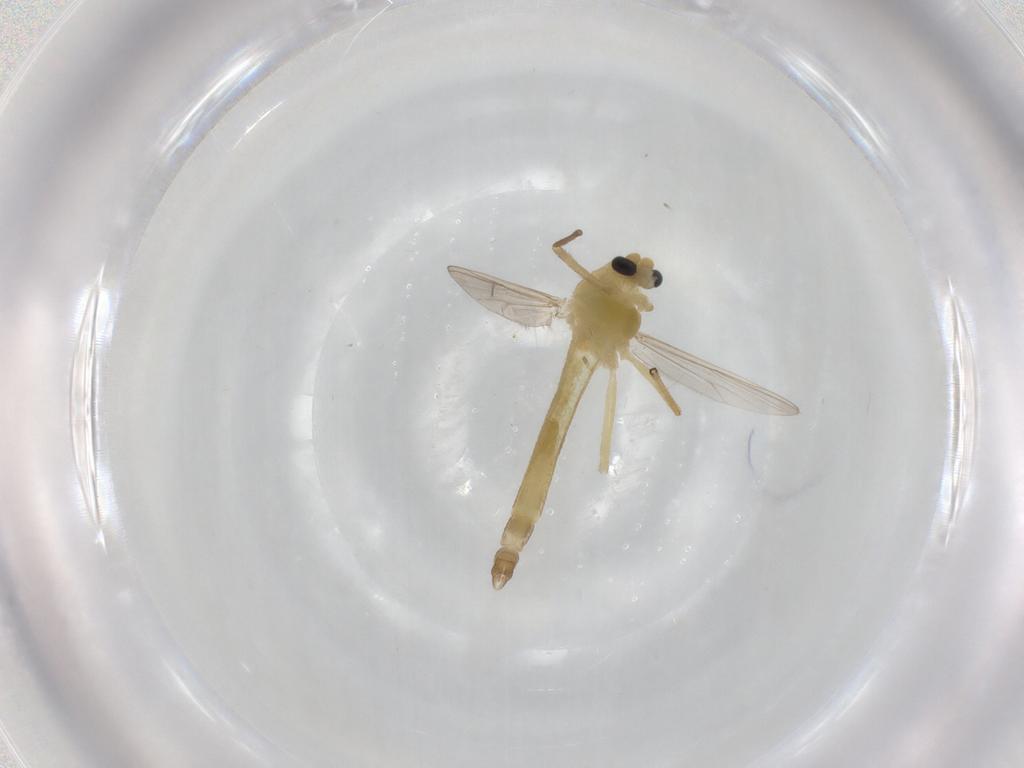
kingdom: Animalia
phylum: Arthropoda
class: Insecta
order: Diptera
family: Chironomidae
